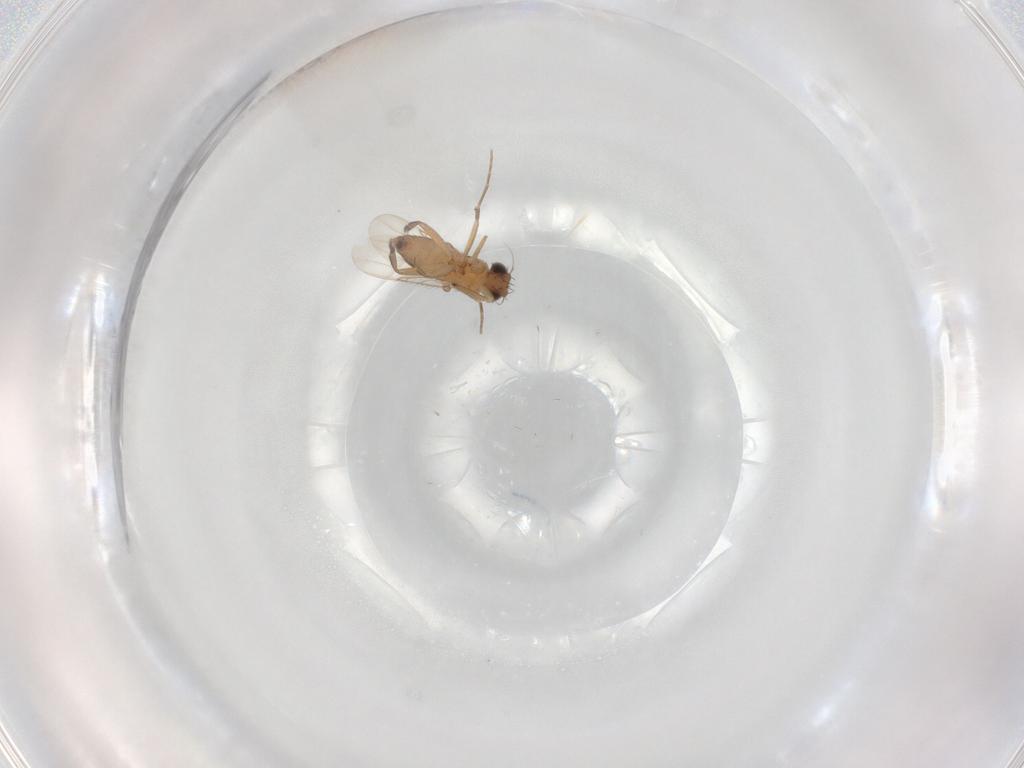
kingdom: Animalia
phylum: Arthropoda
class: Insecta
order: Diptera
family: Phoridae
